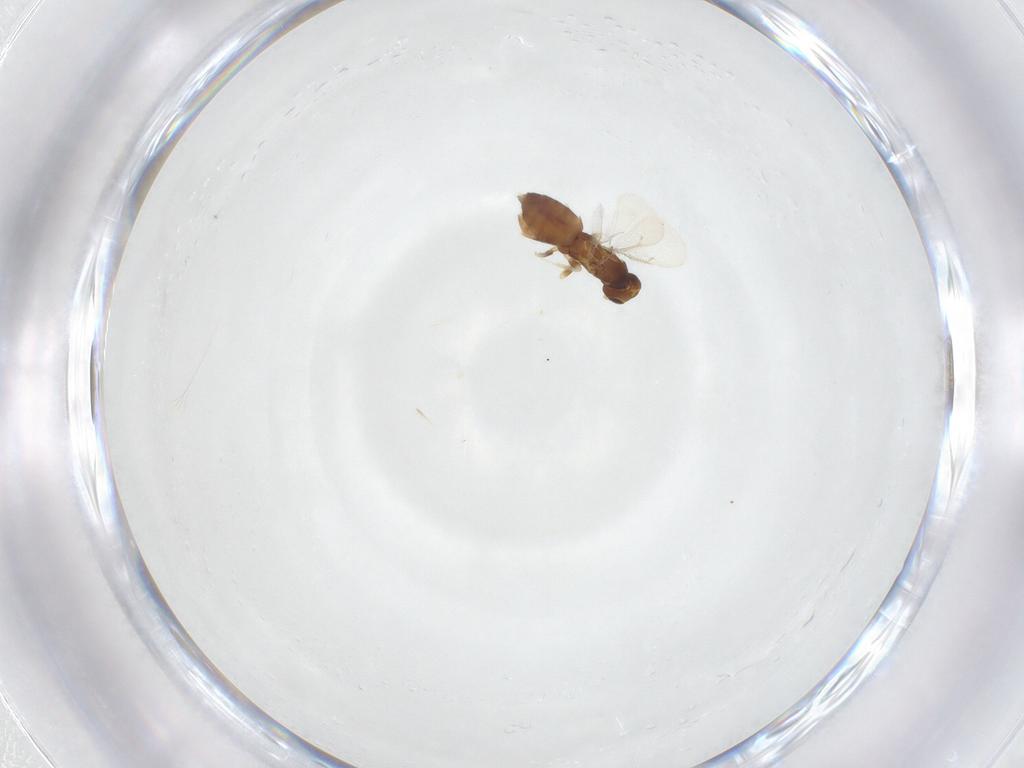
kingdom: Animalia
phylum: Arthropoda
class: Insecta
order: Hymenoptera
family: Eulophidae
